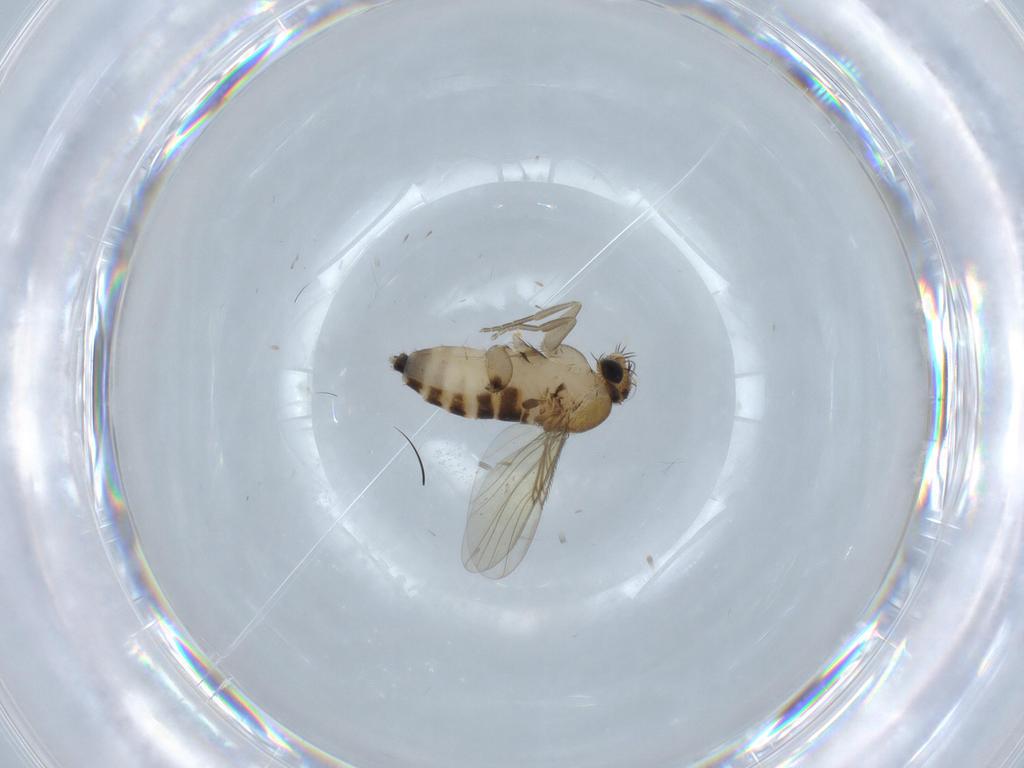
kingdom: Animalia
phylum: Arthropoda
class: Insecta
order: Diptera
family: Phoridae
